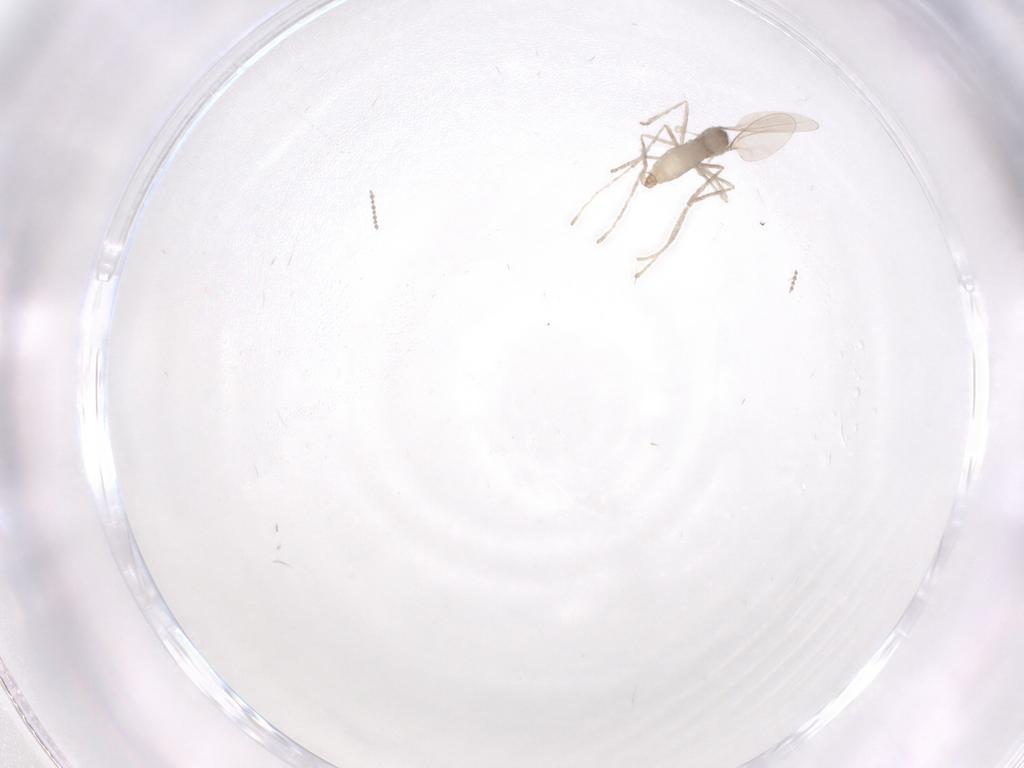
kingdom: Animalia
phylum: Arthropoda
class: Insecta
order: Diptera
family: Cecidomyiidae
